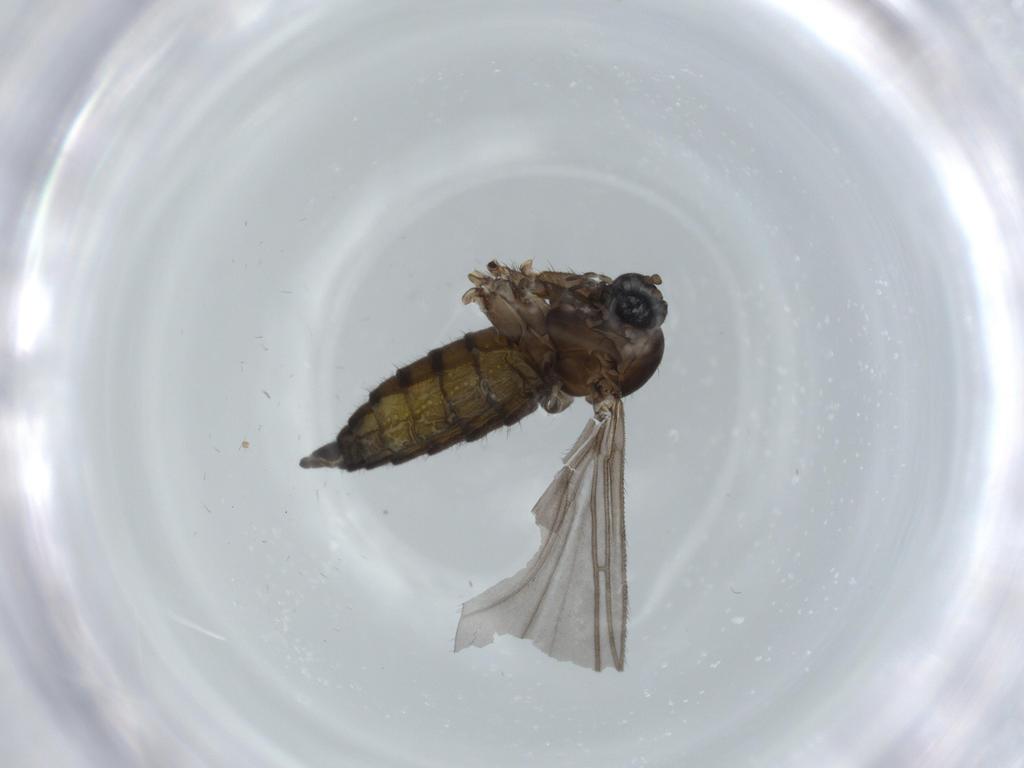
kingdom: Animalia
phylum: Arthropoda
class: Insecta
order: Diptera
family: Sciaridae
